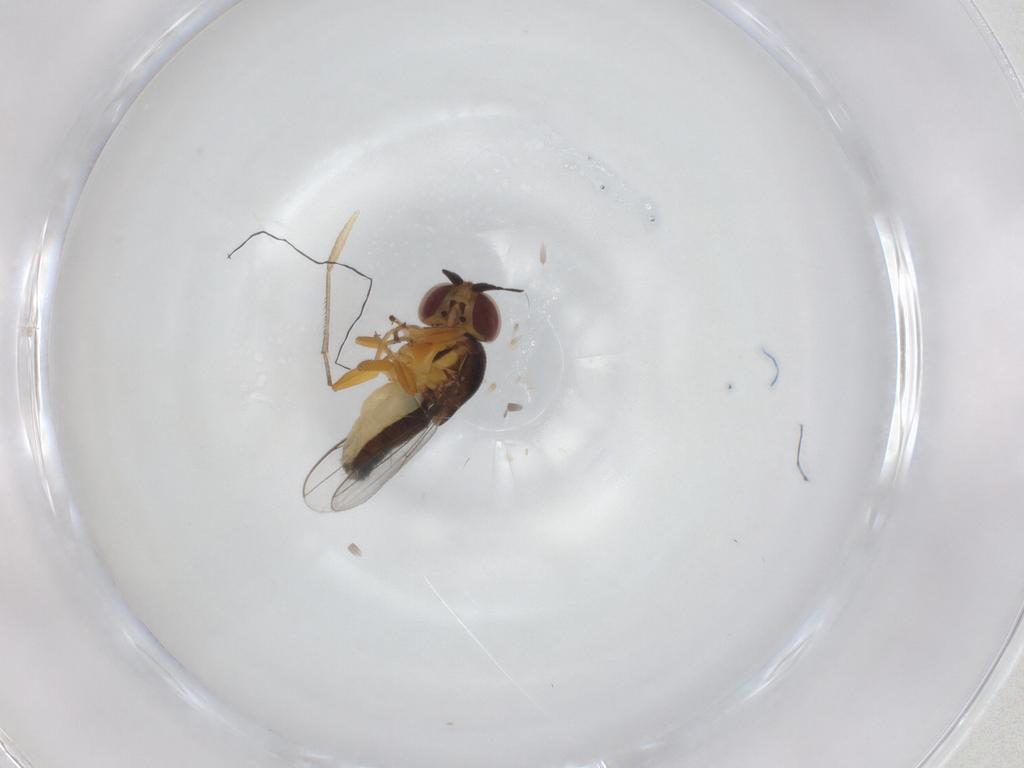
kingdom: Animalia
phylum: Arthropoda
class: Insecta
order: Diptera
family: Chloropidae
